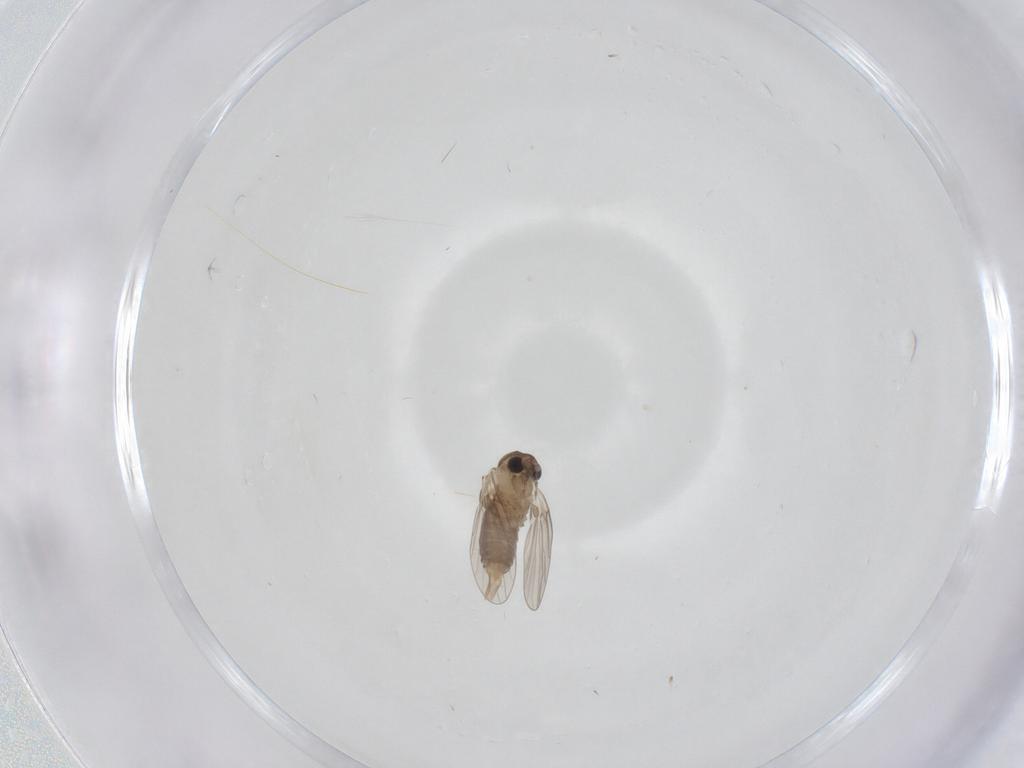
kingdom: Animalia
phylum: Arthropoda
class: Insecta
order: Diptera
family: Psychodidae
